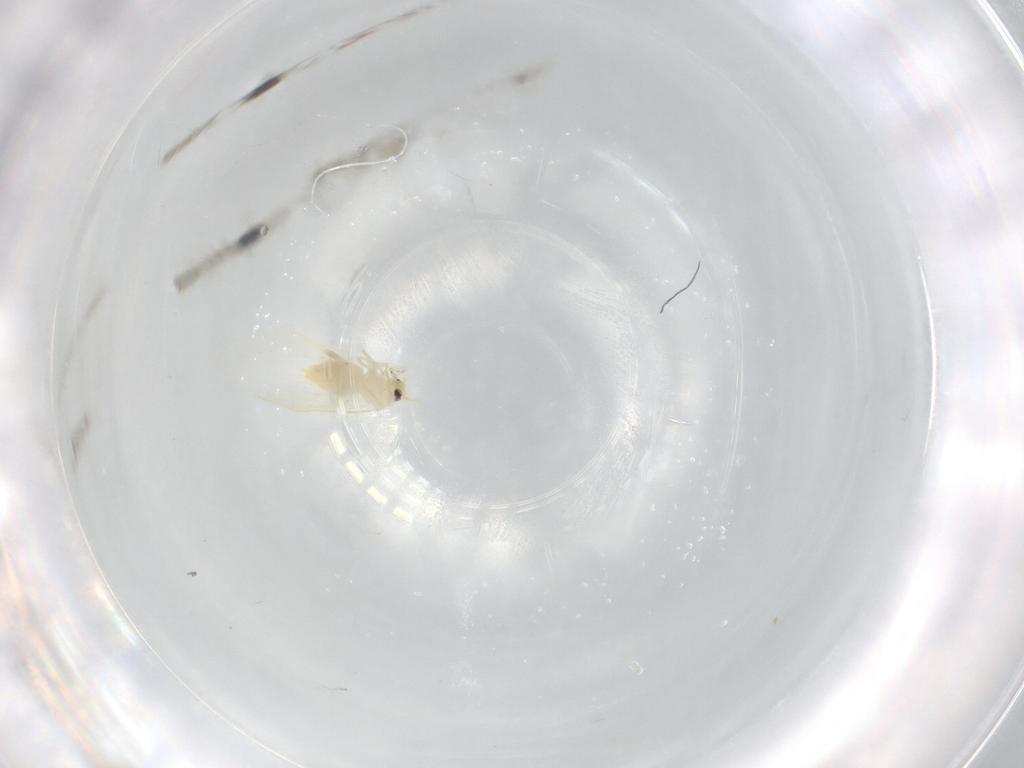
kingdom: Animalia
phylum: Arthropoda
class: Insecta
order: Hemiptera
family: Aleyrodidae
